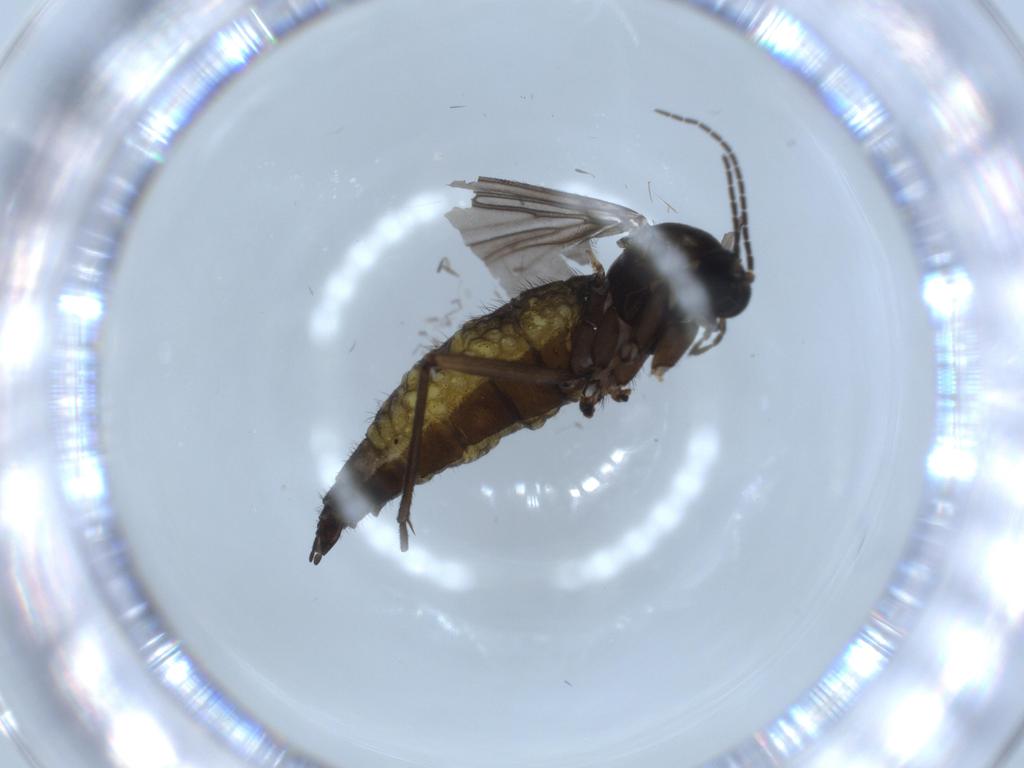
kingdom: Animalia
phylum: Arthropoda
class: Insecta
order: Diptera
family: Sciaridae
